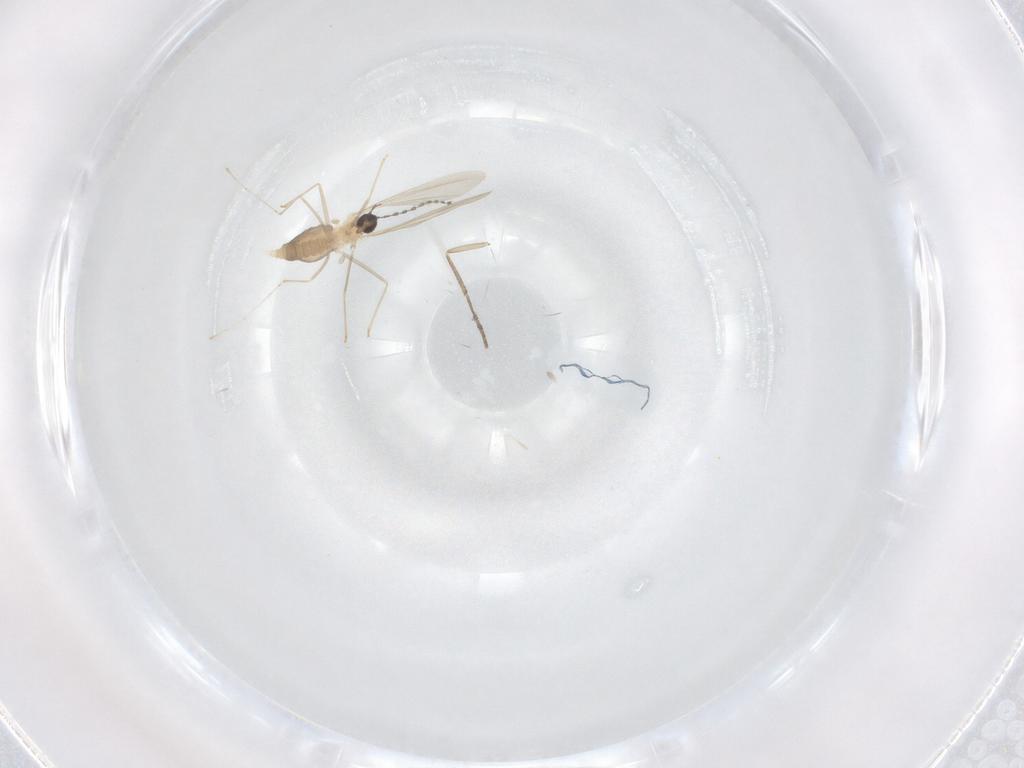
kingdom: Animalia
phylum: Arthropoda
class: Insecta
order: Diptera
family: Cecidomyiidae
